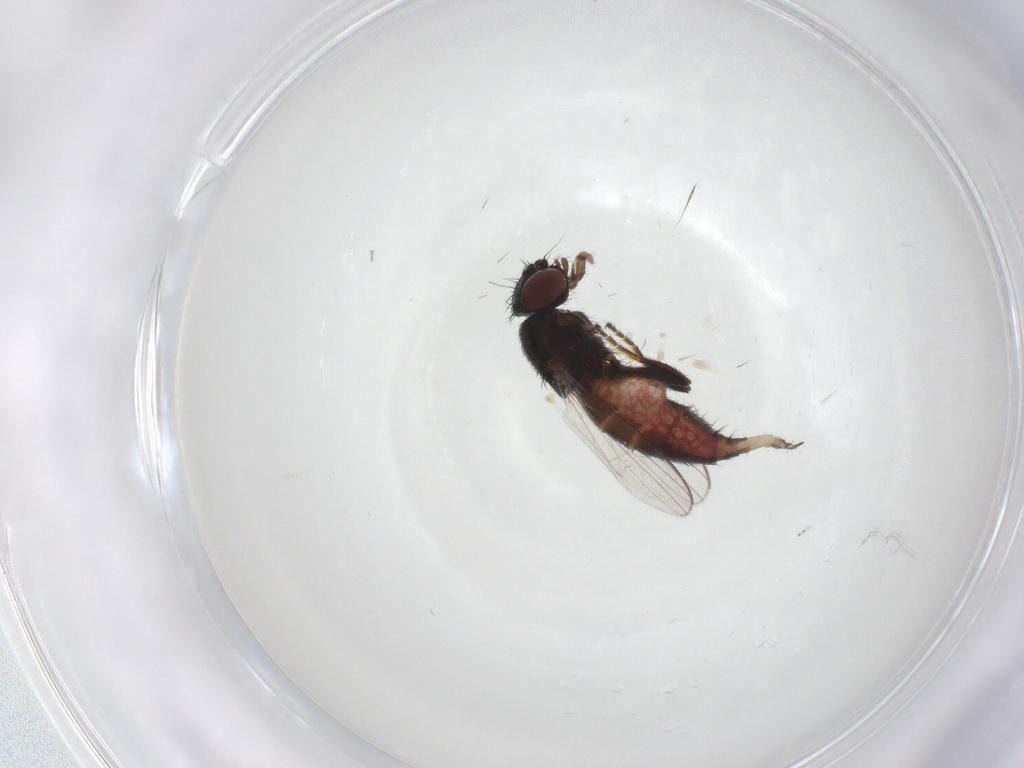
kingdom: Animalia
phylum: Arthropoda
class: Insecta
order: Diptera
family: Milichiidae
